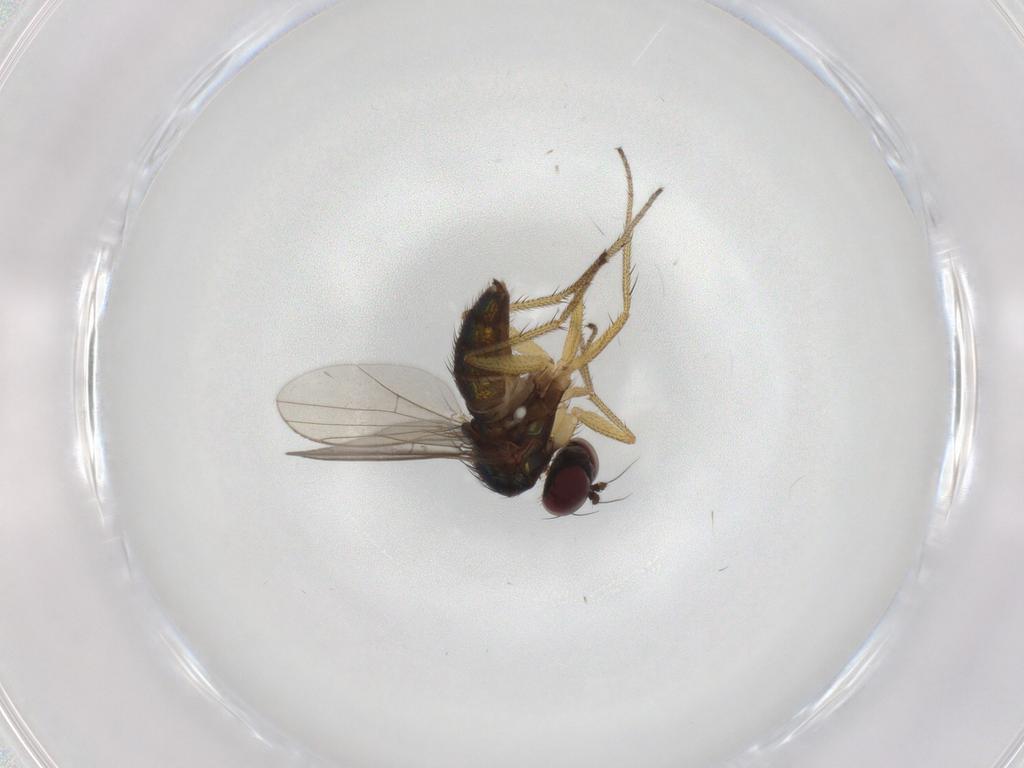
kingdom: Animalia
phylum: Arthropoda
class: Insecta
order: Diptera
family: Dolichopodidae
